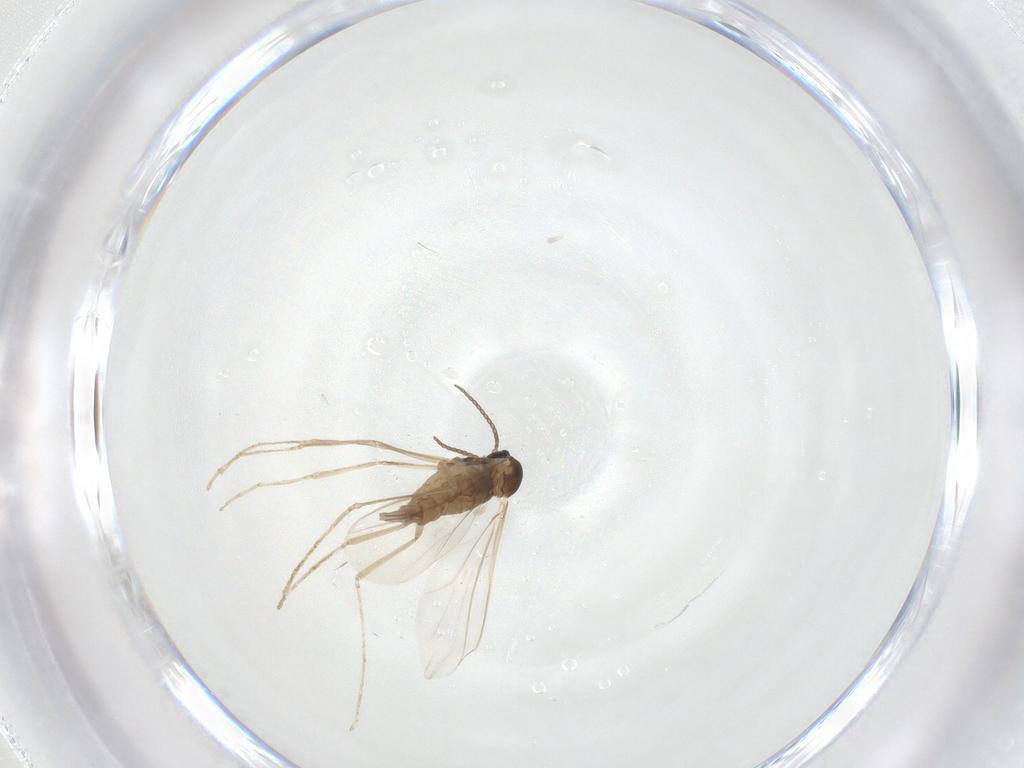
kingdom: Animalia
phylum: Arthropoda
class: Insecta
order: Diptera
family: Cecidomyiidae
